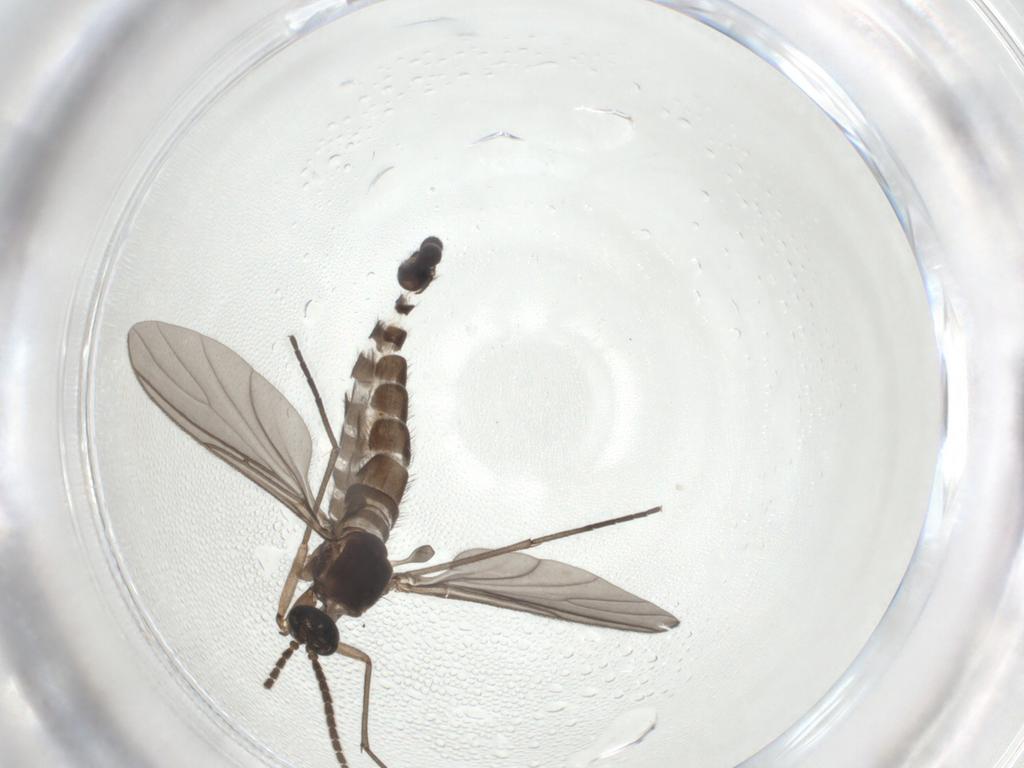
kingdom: Animalia
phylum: Arthropoda
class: Insecta
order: Diptera
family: Sciaridae
